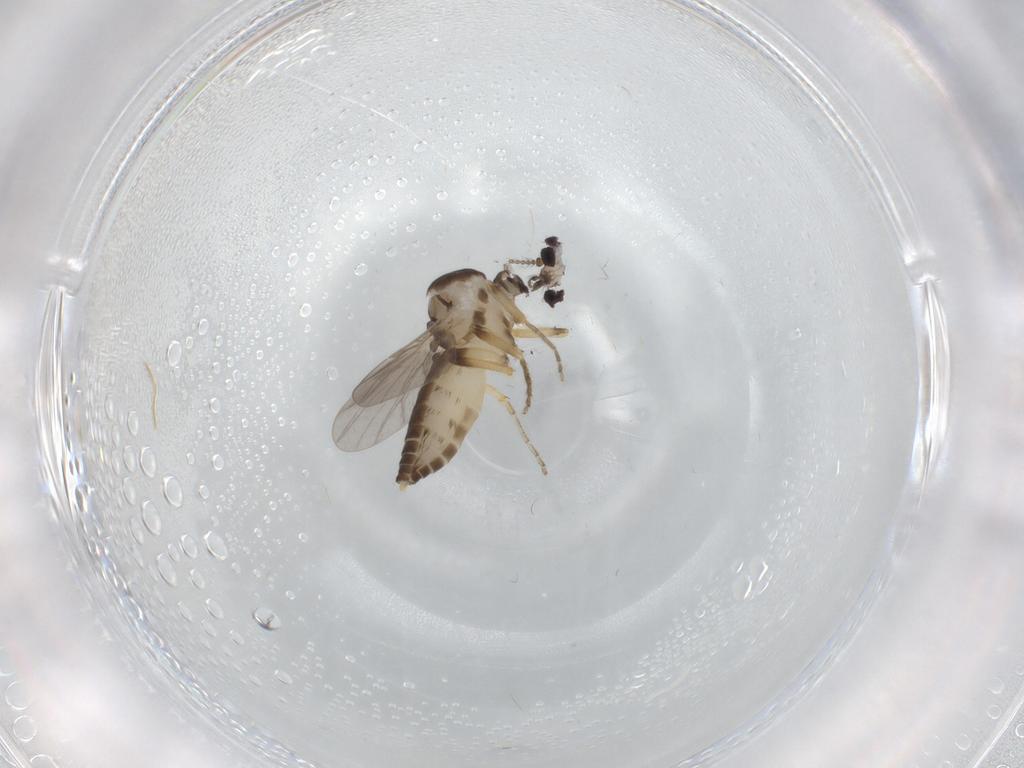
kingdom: Animalia
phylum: Arthropoda
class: Insecta
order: Diptera
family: Ceratopogonidae
